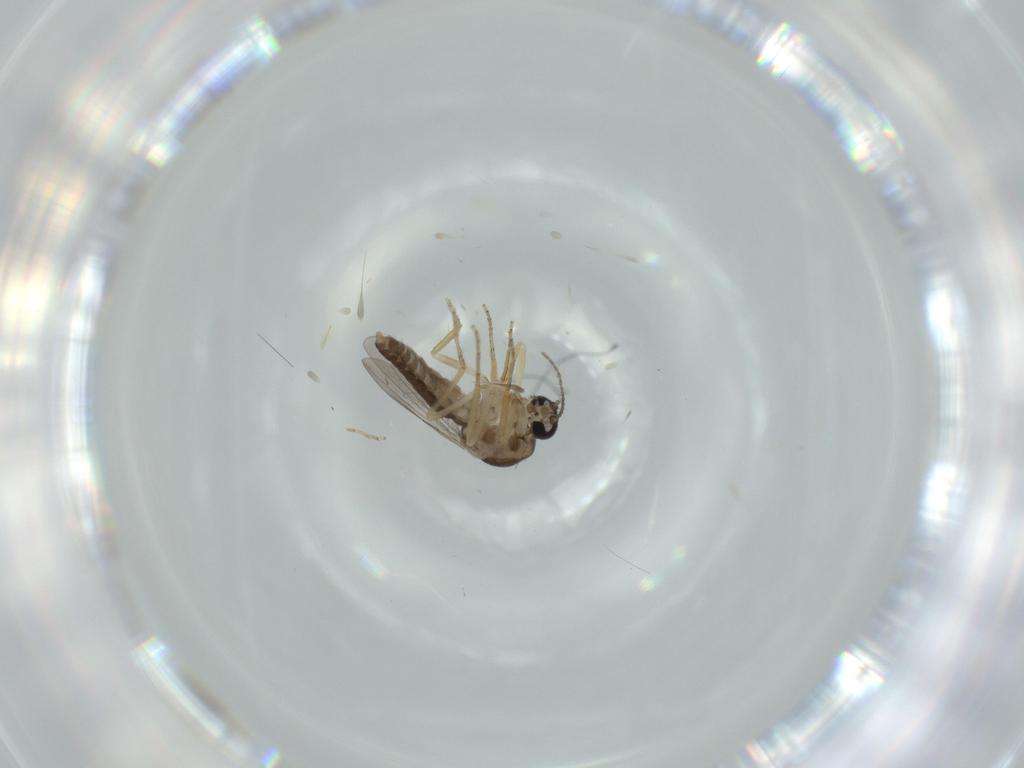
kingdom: Animalia
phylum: Arthropoda
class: Insecta
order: Diptera
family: Ceratopogonidae
